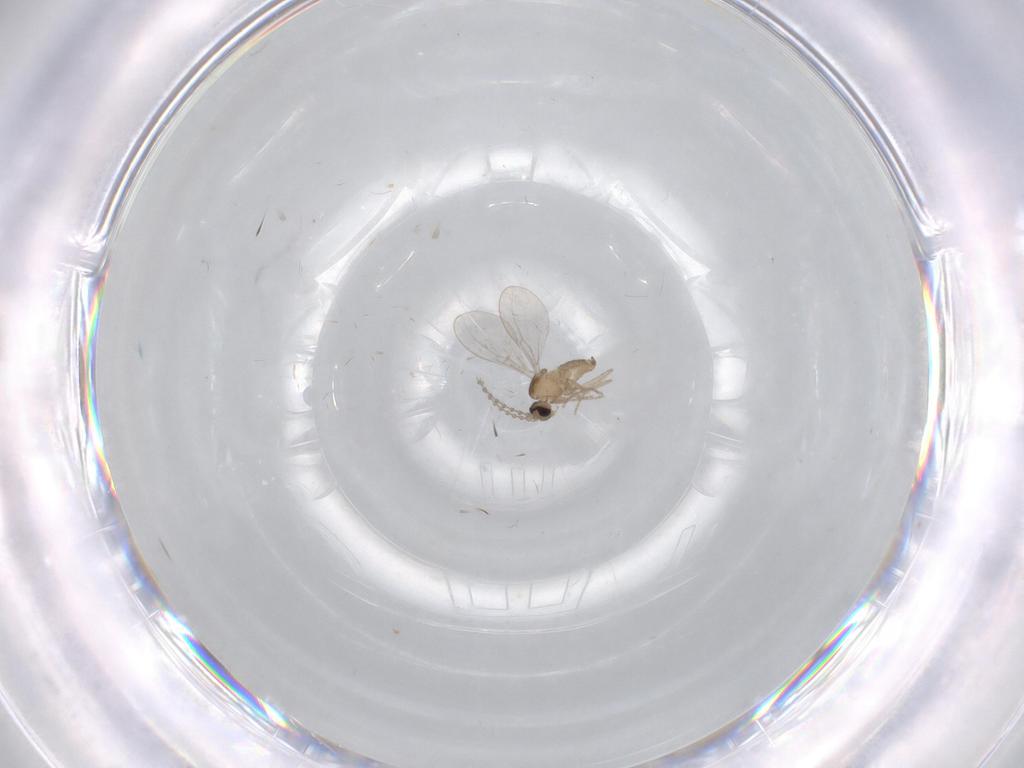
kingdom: Animalia
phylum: Arthropoda
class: Insecta
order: Diptera
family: Cecidomyiidae
